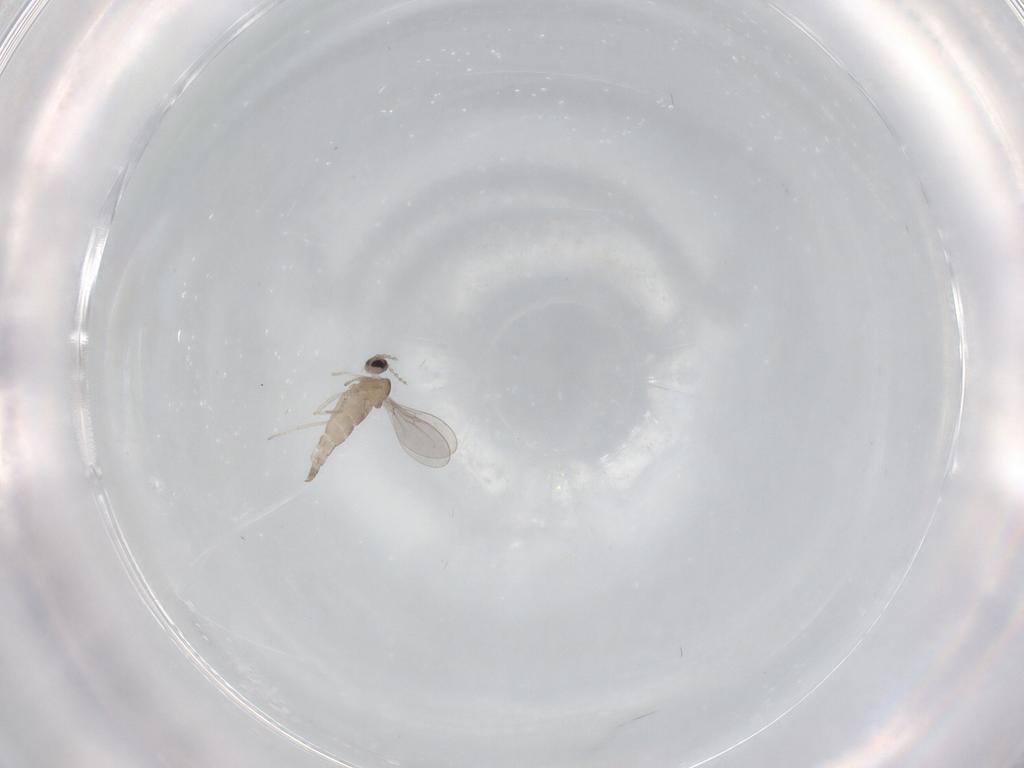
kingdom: Animalia
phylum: Arthropoda
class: Insecta
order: Diptera
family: Cecidomyiidae
